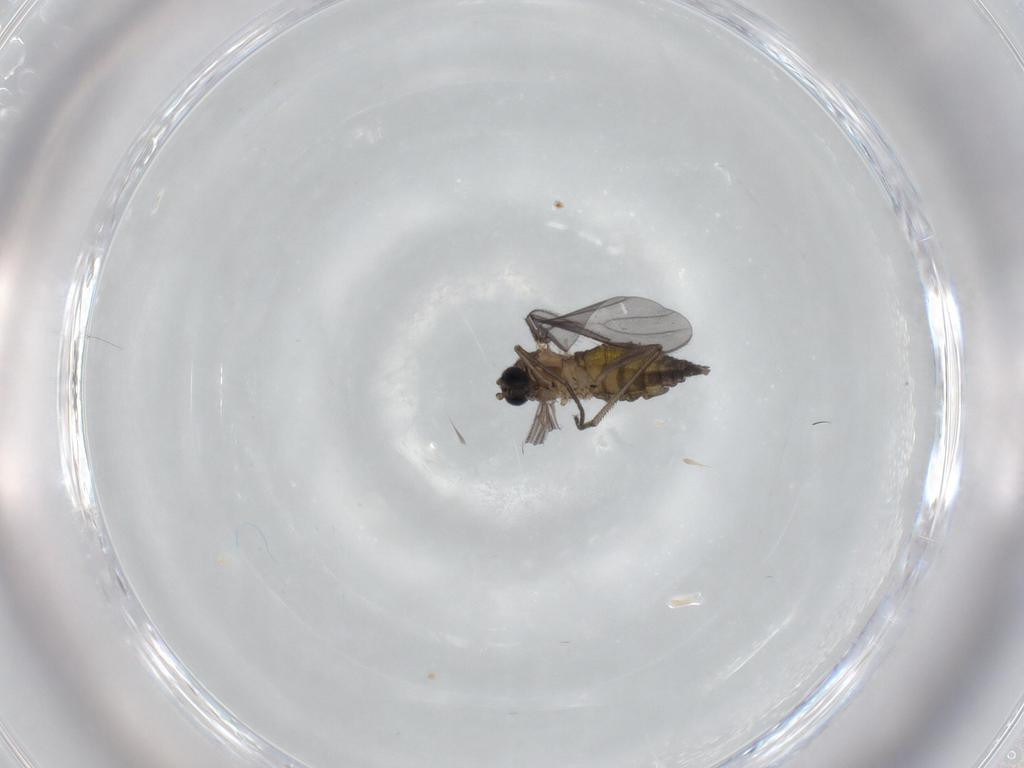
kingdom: Animalia
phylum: Arthropoda
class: Insecta
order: Diptera
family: Sciaridae
